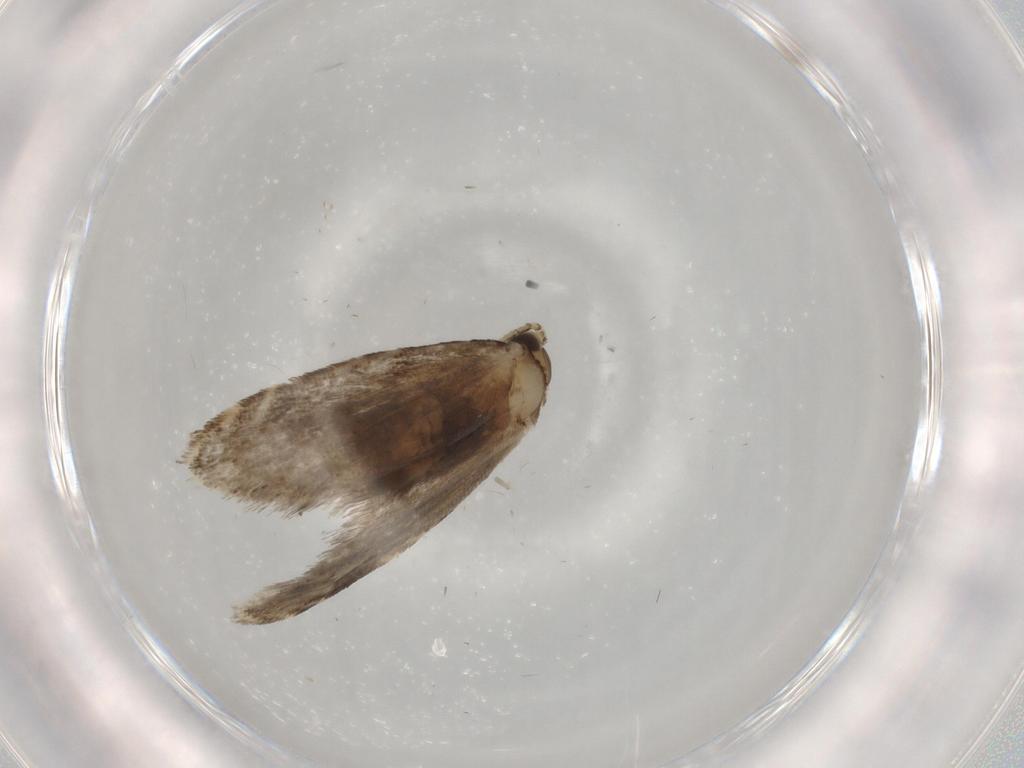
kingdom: Animalia
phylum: Arthropoda
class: Insecta
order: Lepidoptera
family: Tineidae
